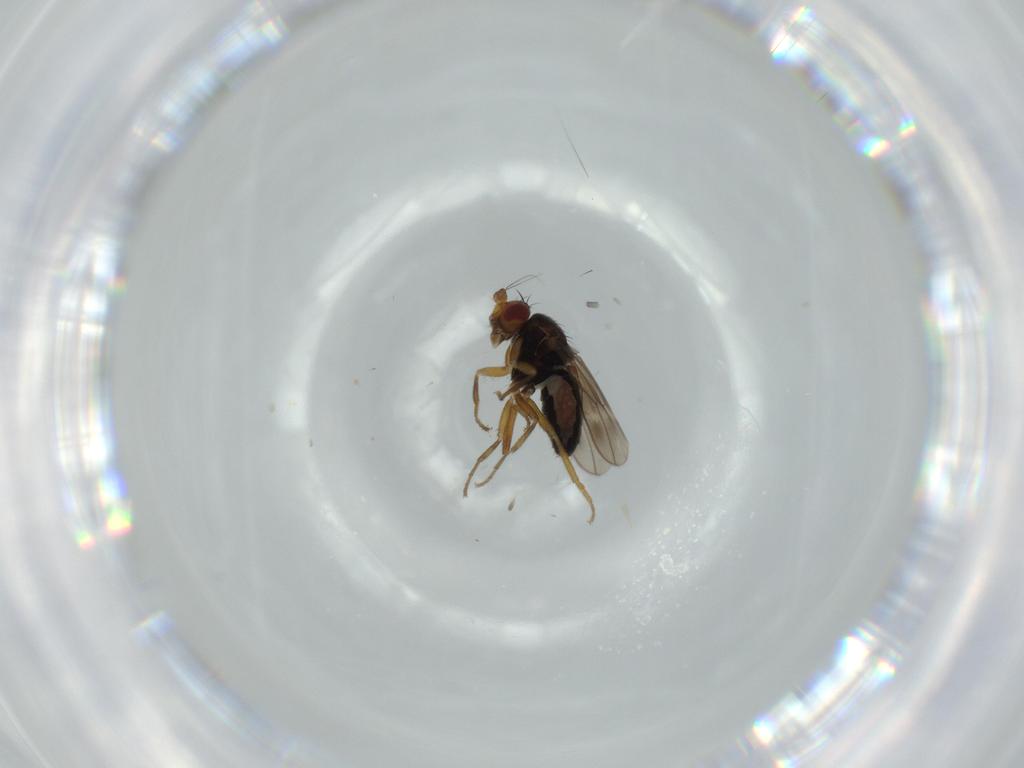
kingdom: Animalia
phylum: Arthropoda
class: Insecta
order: Diptera
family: Sphaeroceridae
